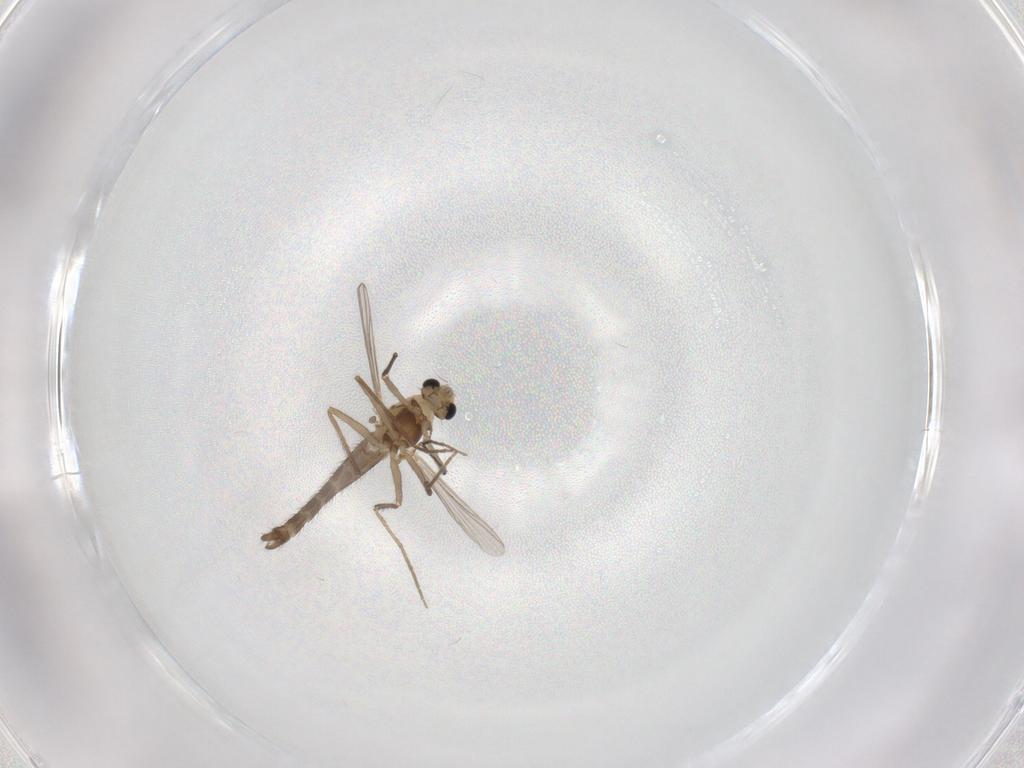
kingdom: Animalia
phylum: Arthropoda
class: Insecta
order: Diptera
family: Chironomidae
